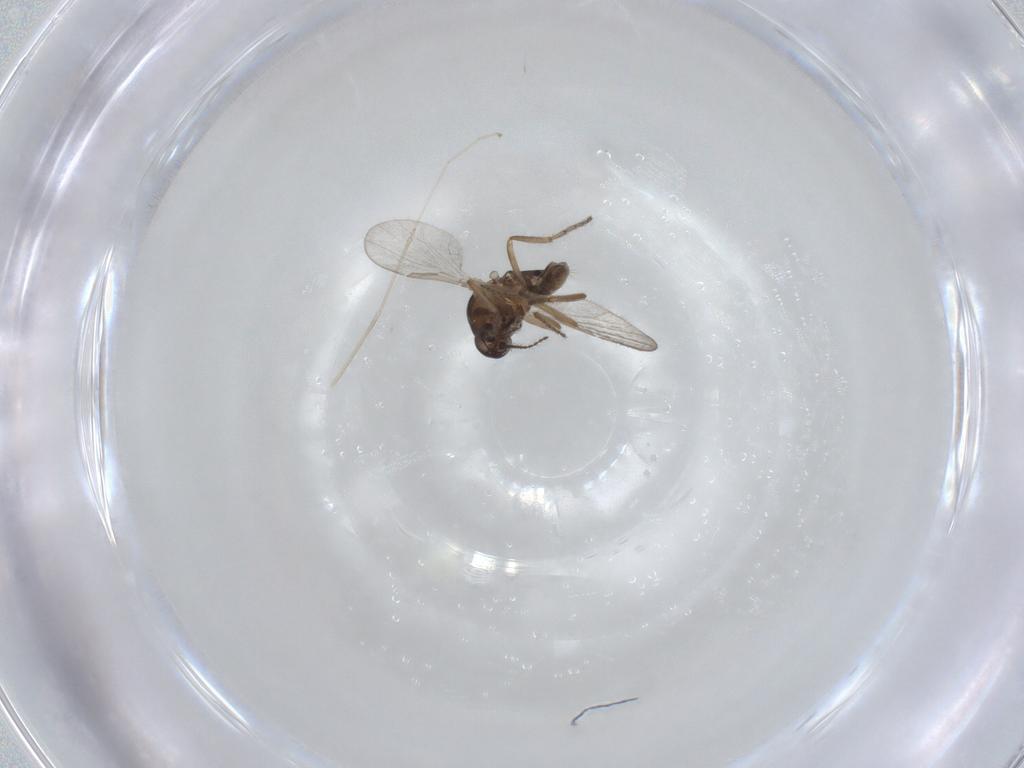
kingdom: Animalia
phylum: Arthropoda
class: Insecta
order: Diptera
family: Ceratopogonidae
